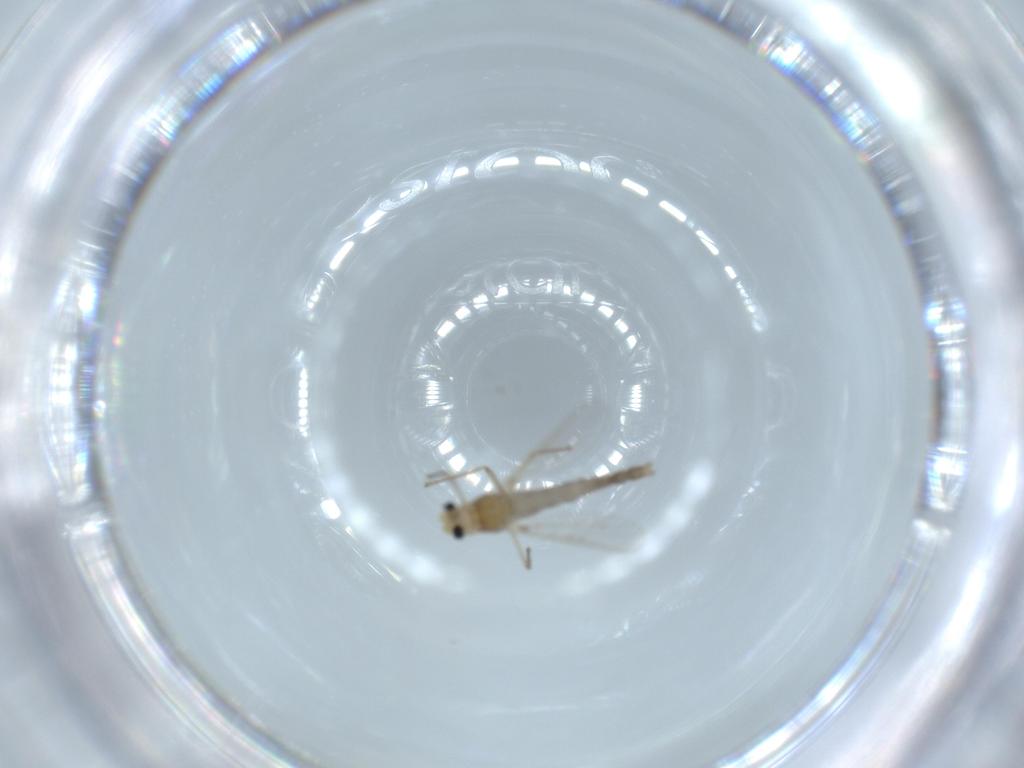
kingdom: Animalia
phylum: Arthropoda
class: Insecta
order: Diptera
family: Chironomidae
